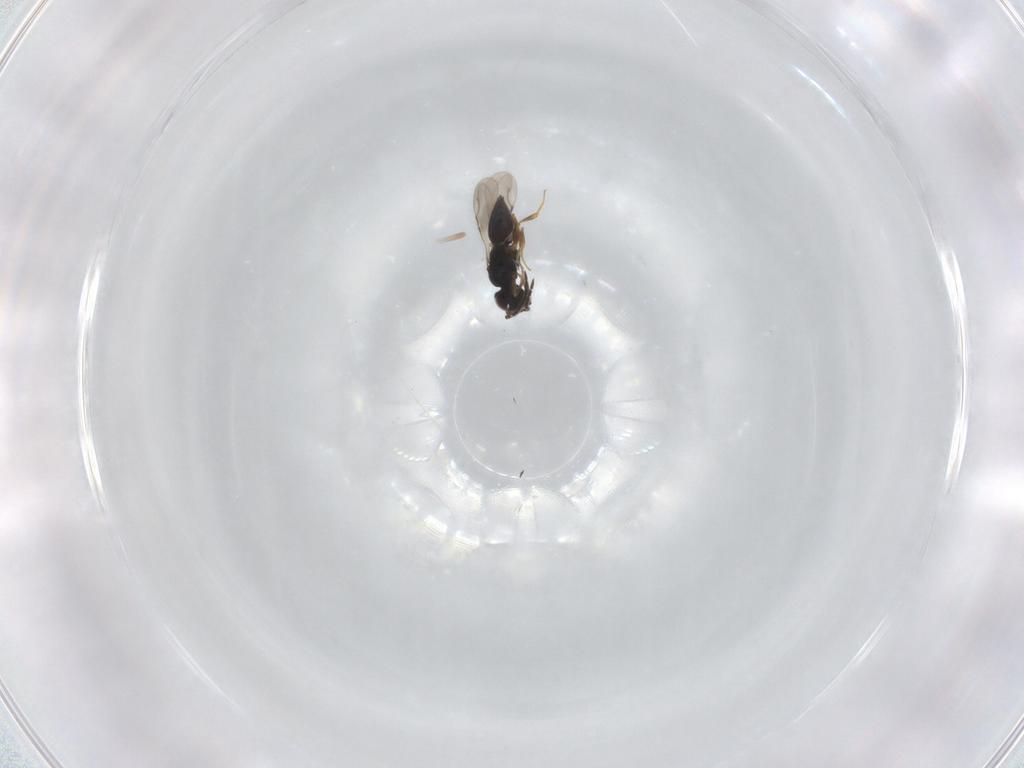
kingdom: Animalia
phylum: Arthropoda
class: Insecta
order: Hymenoptera
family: Ceraphronidae
